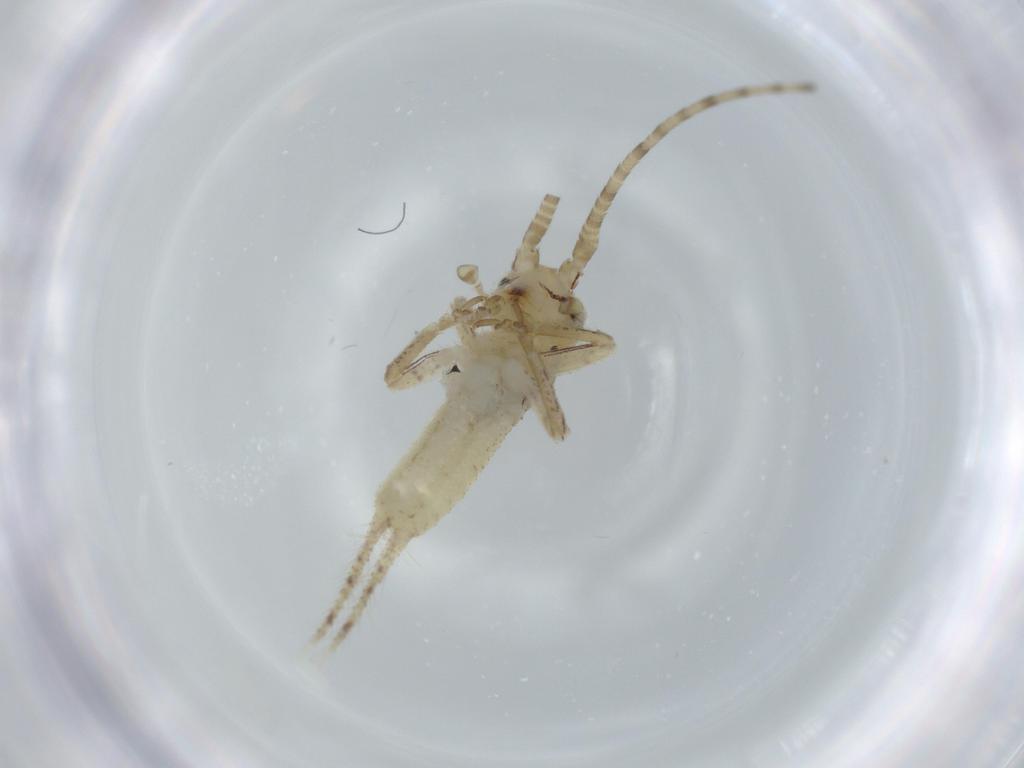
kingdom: Animalia
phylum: Arthropoda
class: Insecta
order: Orthoptera
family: Gryllidae
